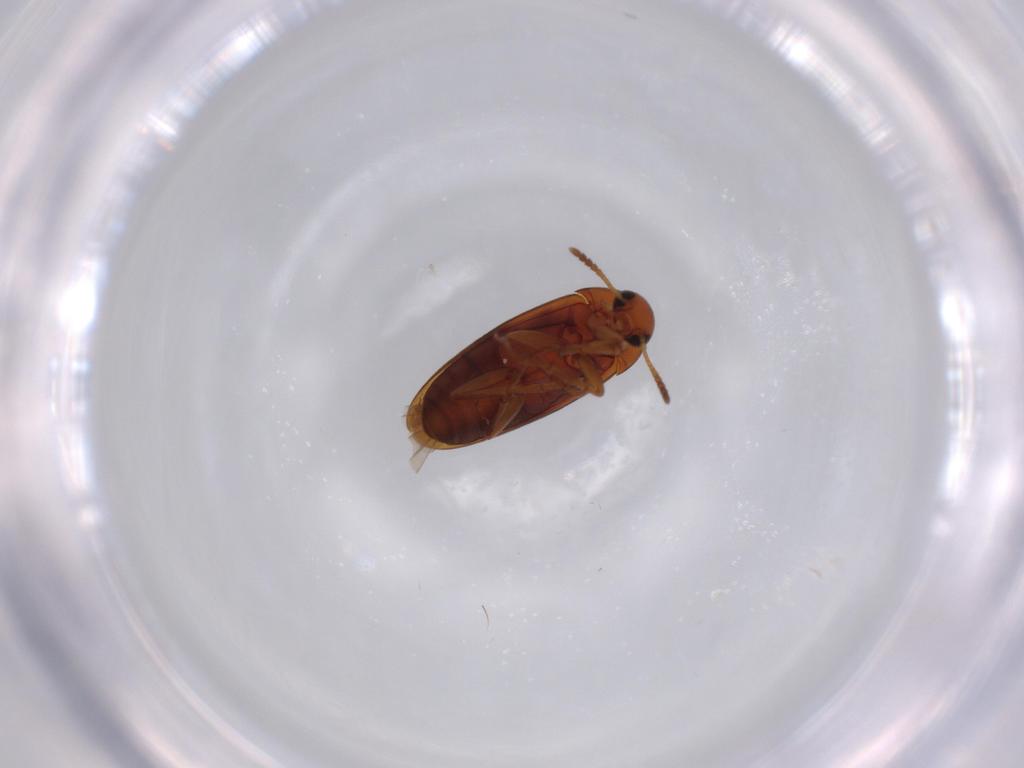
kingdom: Animalia
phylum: Arthropoda
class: Insecta
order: Coleoptera
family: Scraptiidae
